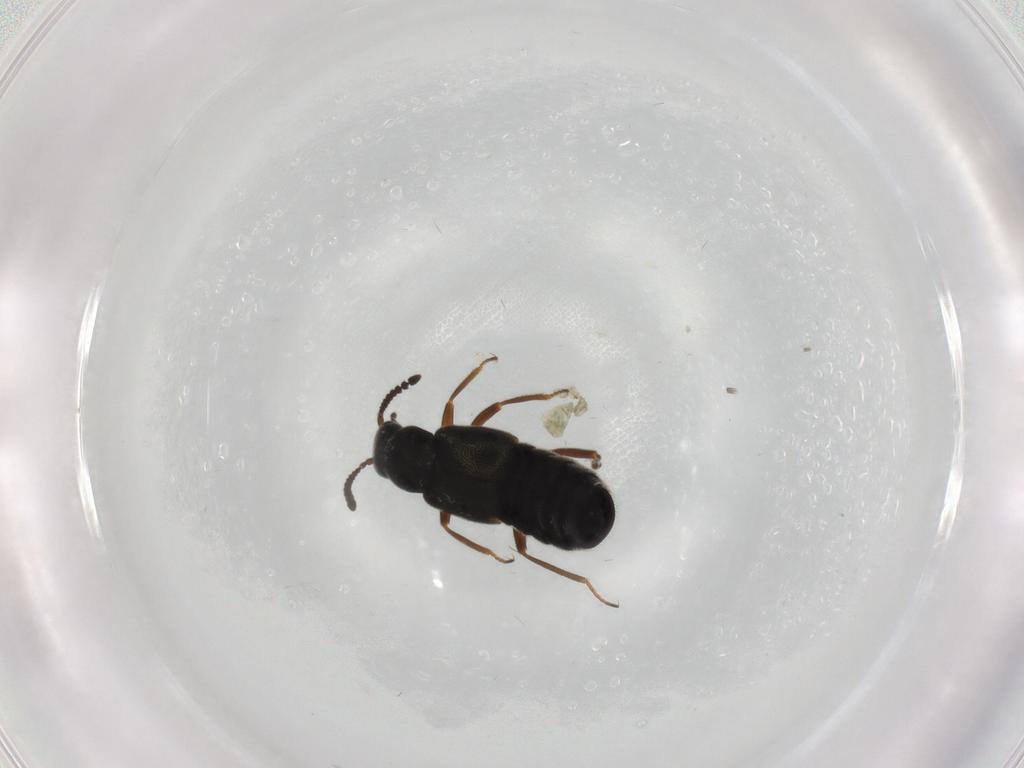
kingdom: Animalia
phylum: Arthropoda
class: Insecta
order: Coleoptera
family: Staphylinidae
